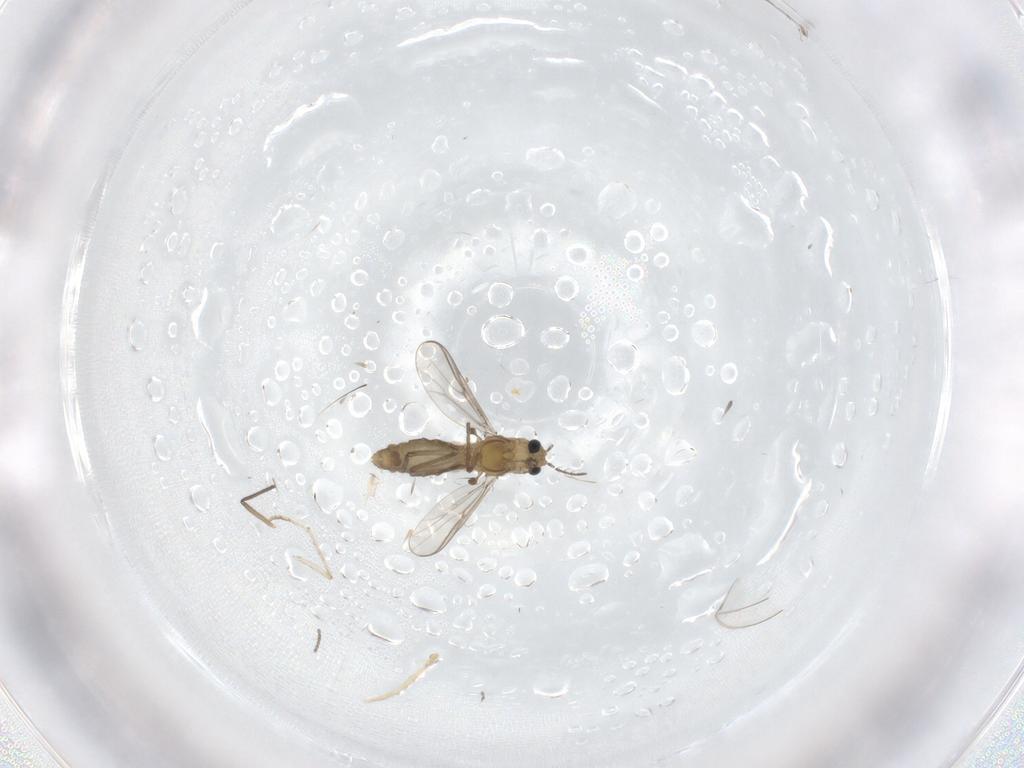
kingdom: Animalia
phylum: Arthropoda
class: Insecta
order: Diptera
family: Chironomidae
